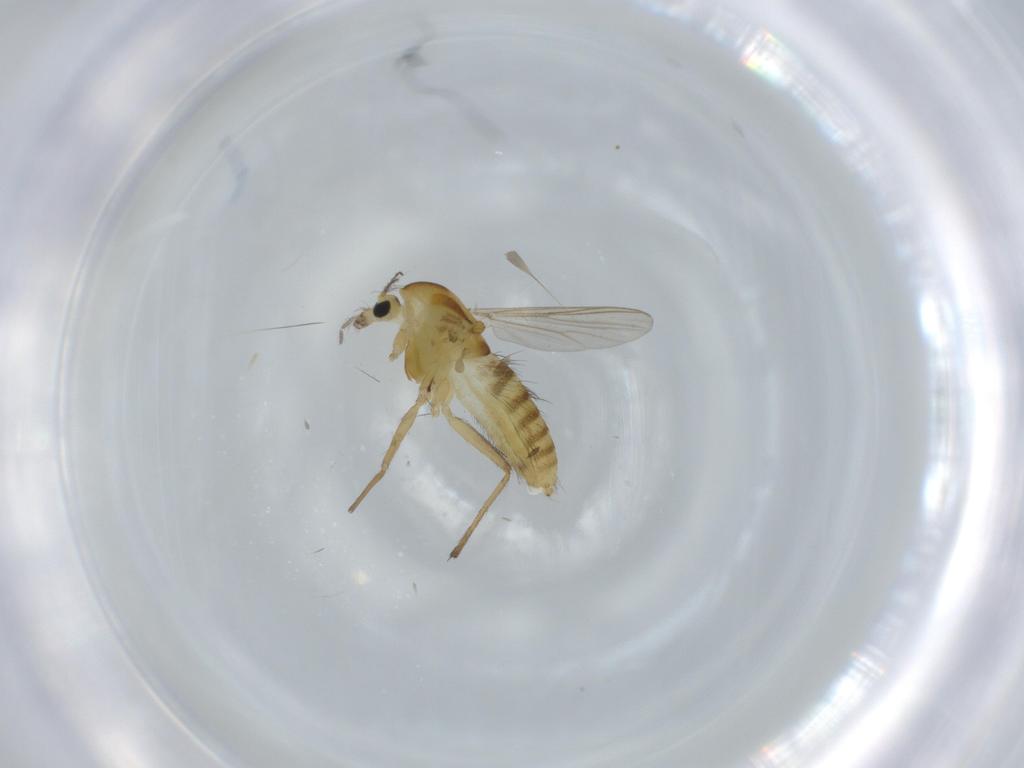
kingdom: Animalia
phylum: Arthropoda
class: Insecta
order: Diptera
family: Chironomidae
